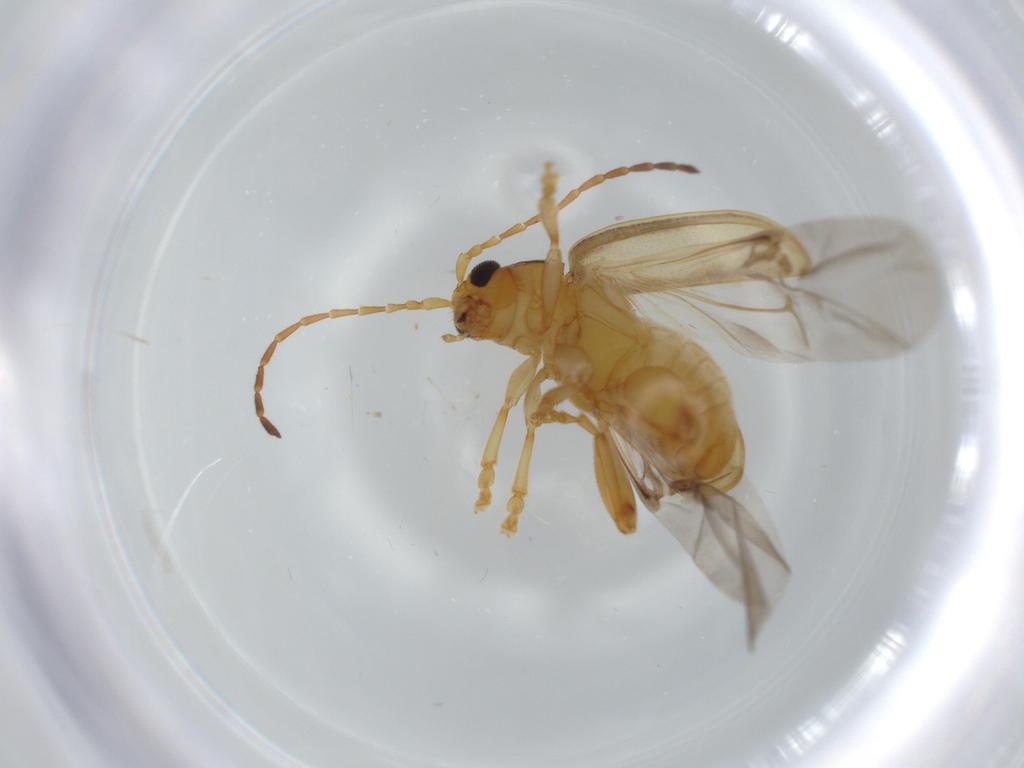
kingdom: Animalia
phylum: Arthropoda
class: Insecta
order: Coleoptera
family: Chrysomelidae
